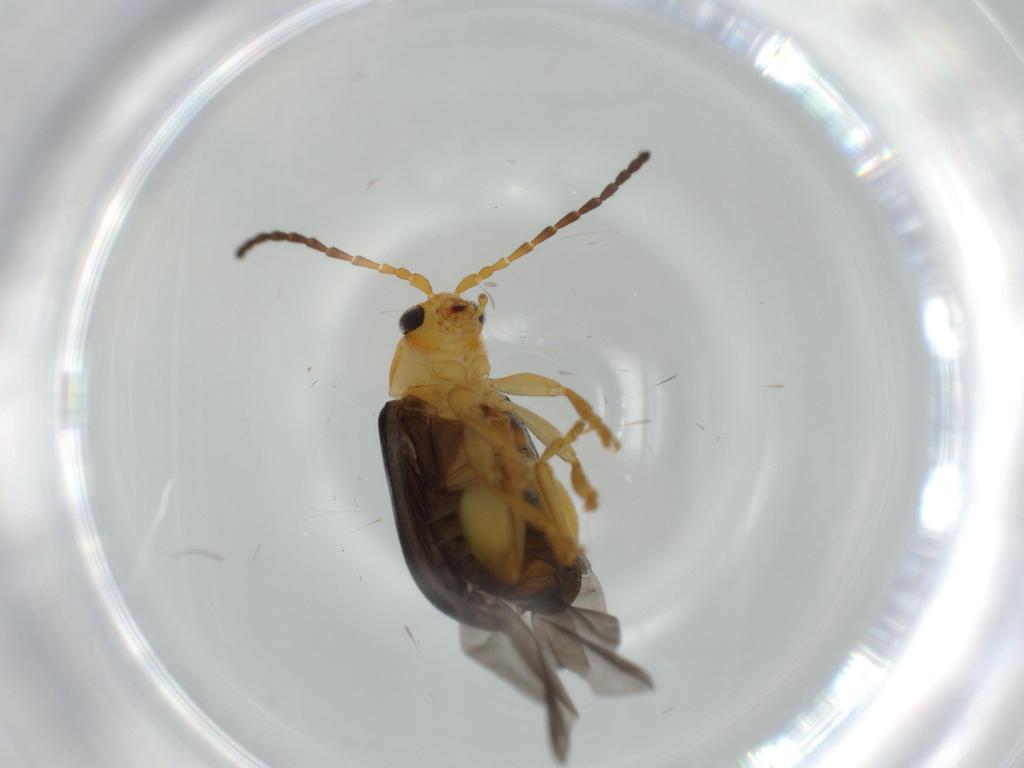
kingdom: Animalia
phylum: Arthropoda
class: Insecta
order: Coleoptera
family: Chrysomelidae
